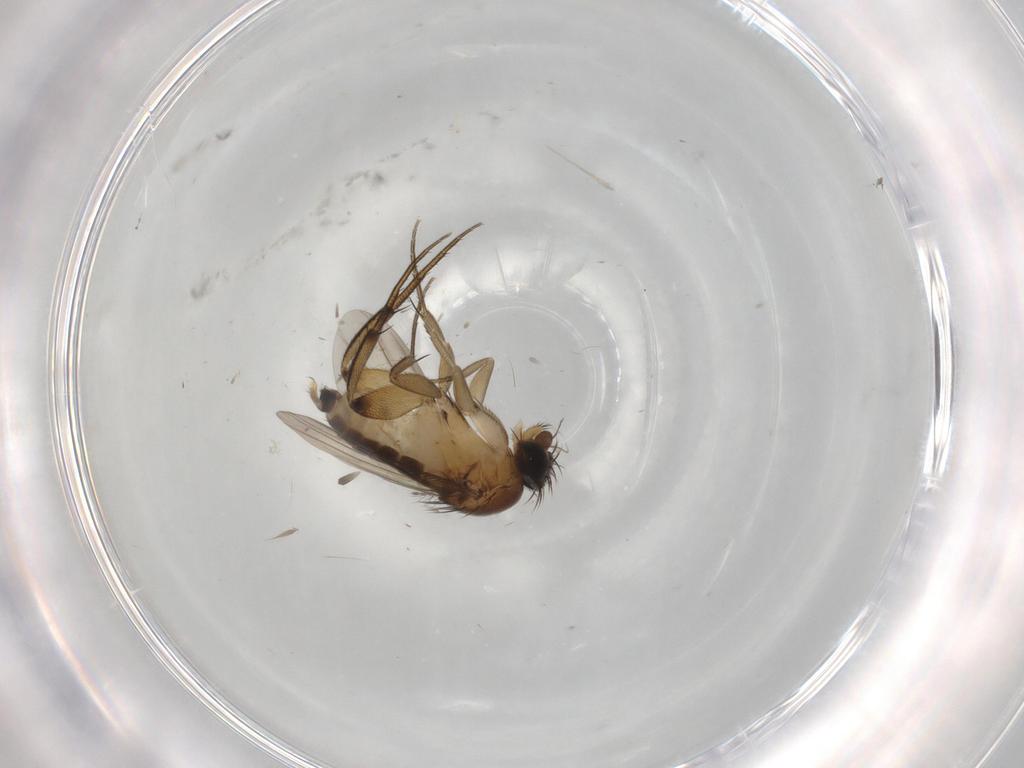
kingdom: Animalia
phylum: Arthropoda
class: Insecta
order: Diptera
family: Phoridae
